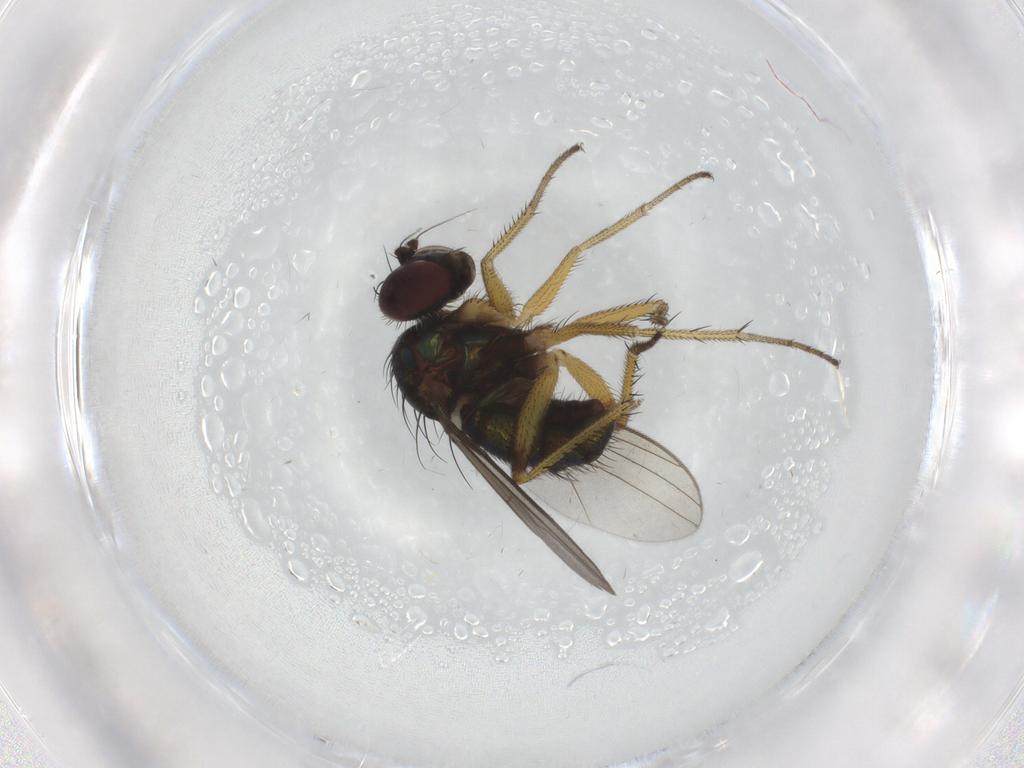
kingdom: Animalia
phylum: Arthropoda
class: Insecta
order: Diptera
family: Dolichopodidae
